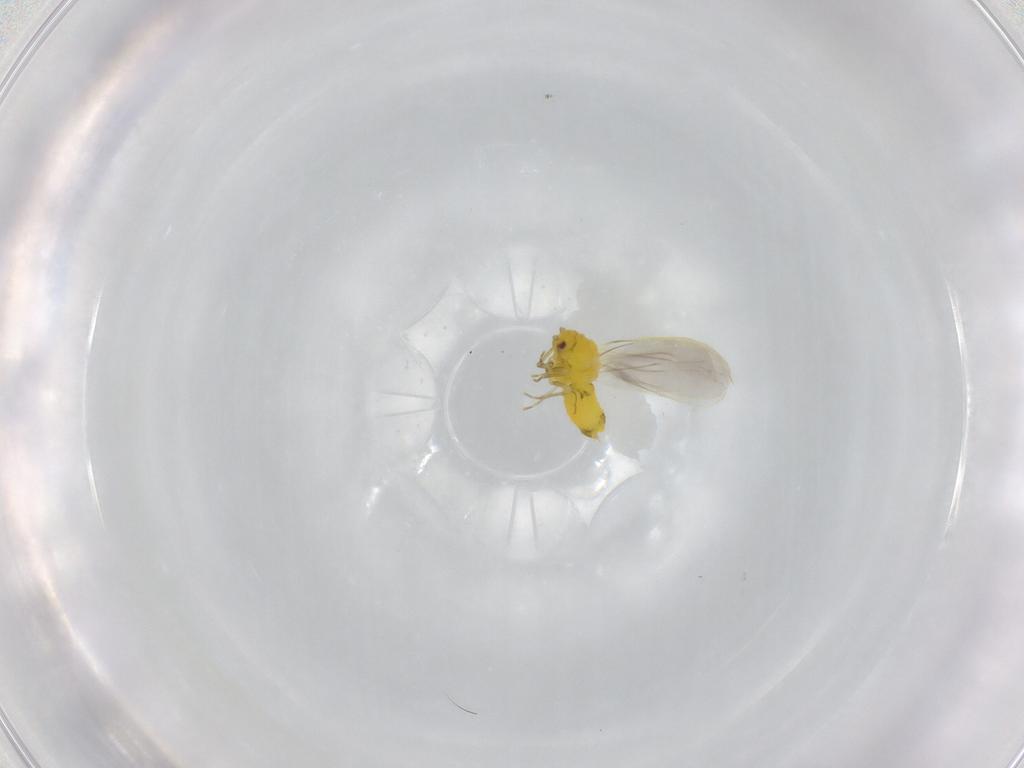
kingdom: Animalia
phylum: Arthropoda
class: Insecta
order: Hemiptera
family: Aleyrodidae
